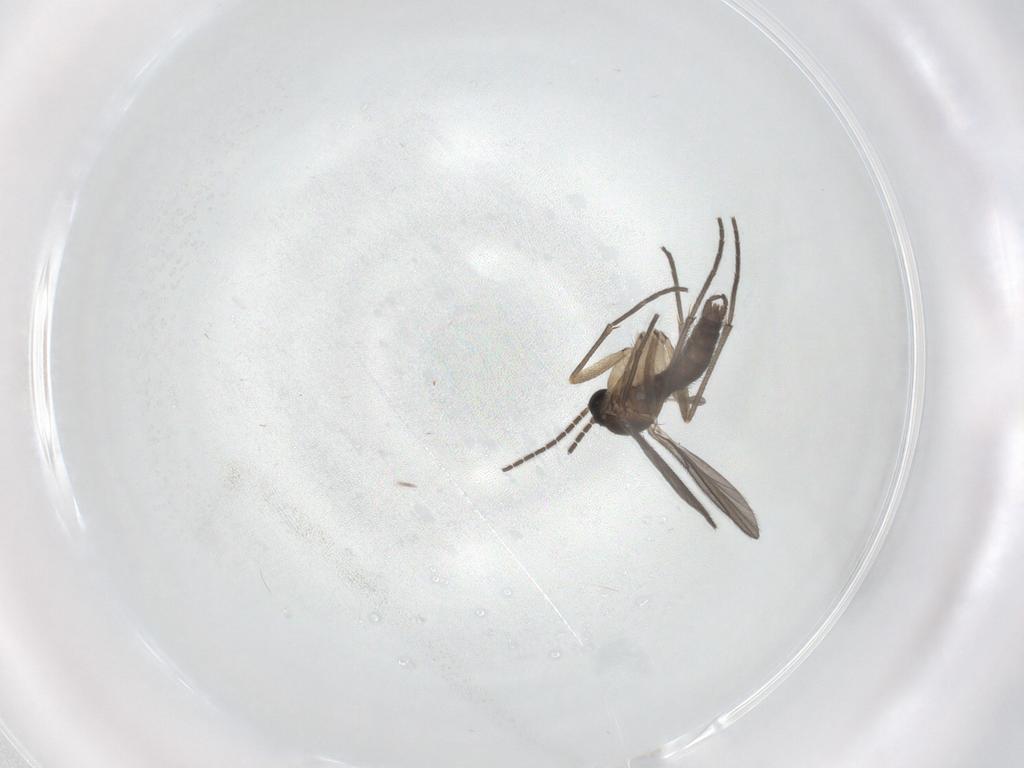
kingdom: Animalia
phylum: Arthropoda
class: Insecta
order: Diptera
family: Sciaridae
